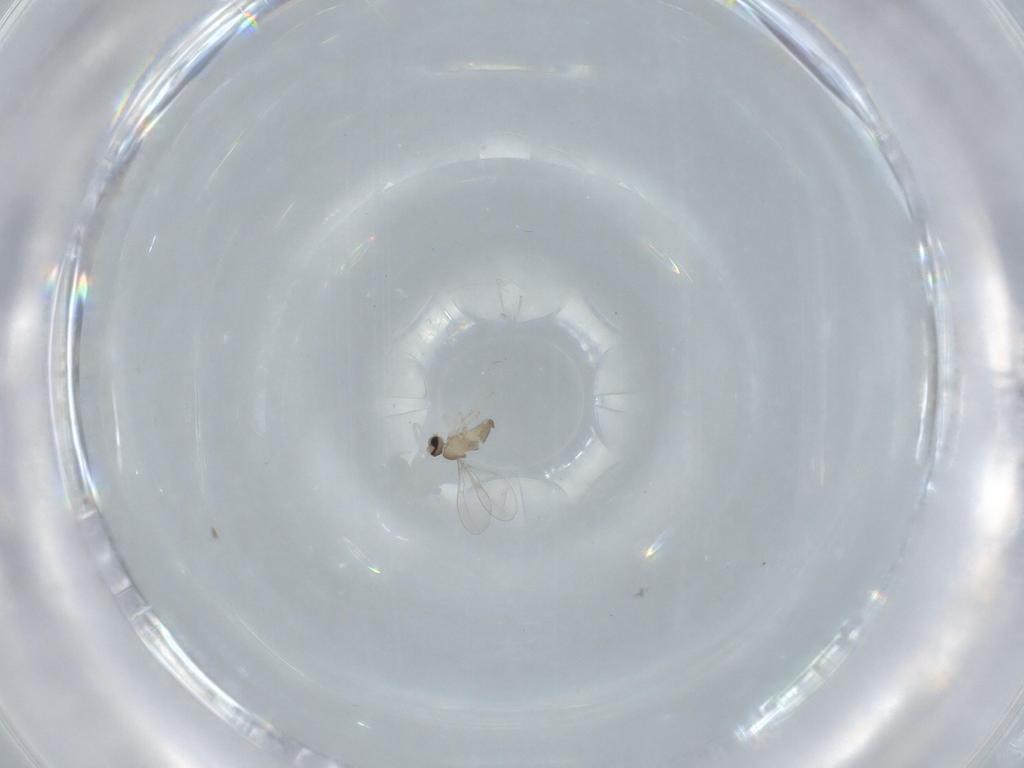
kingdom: Animalia
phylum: Arthropoda
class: Insecta
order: Diptera
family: Cecidomyiidae
